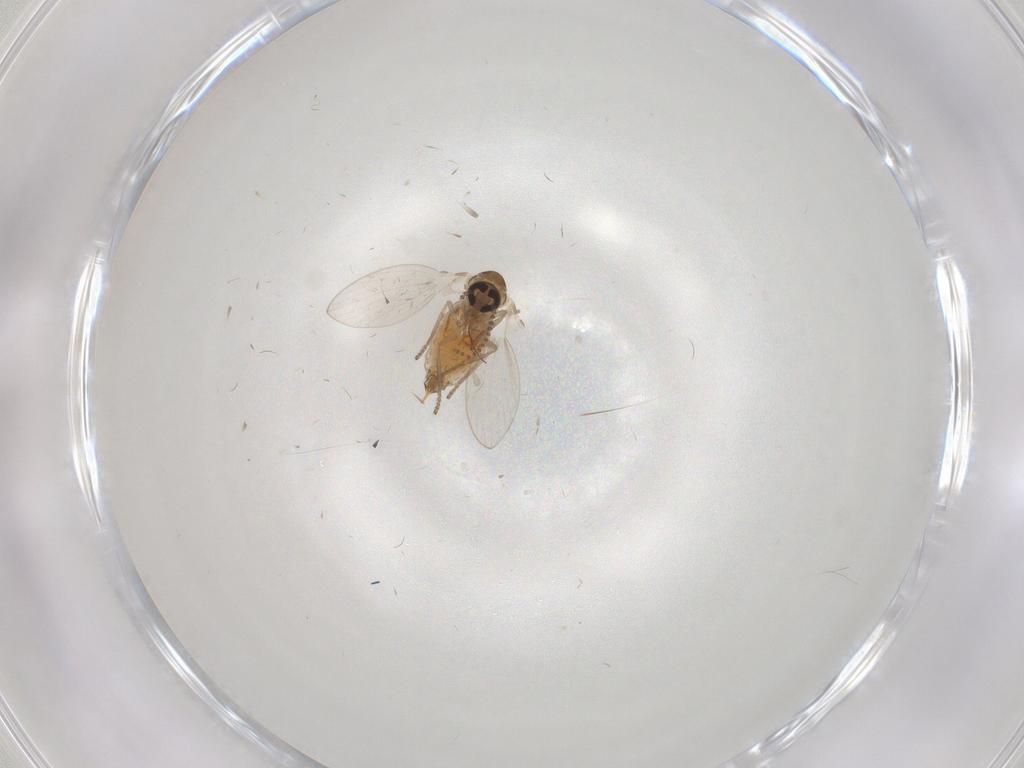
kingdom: Animalia
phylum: Arthropoda
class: Insecta
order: Diptera
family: Psychodidae
